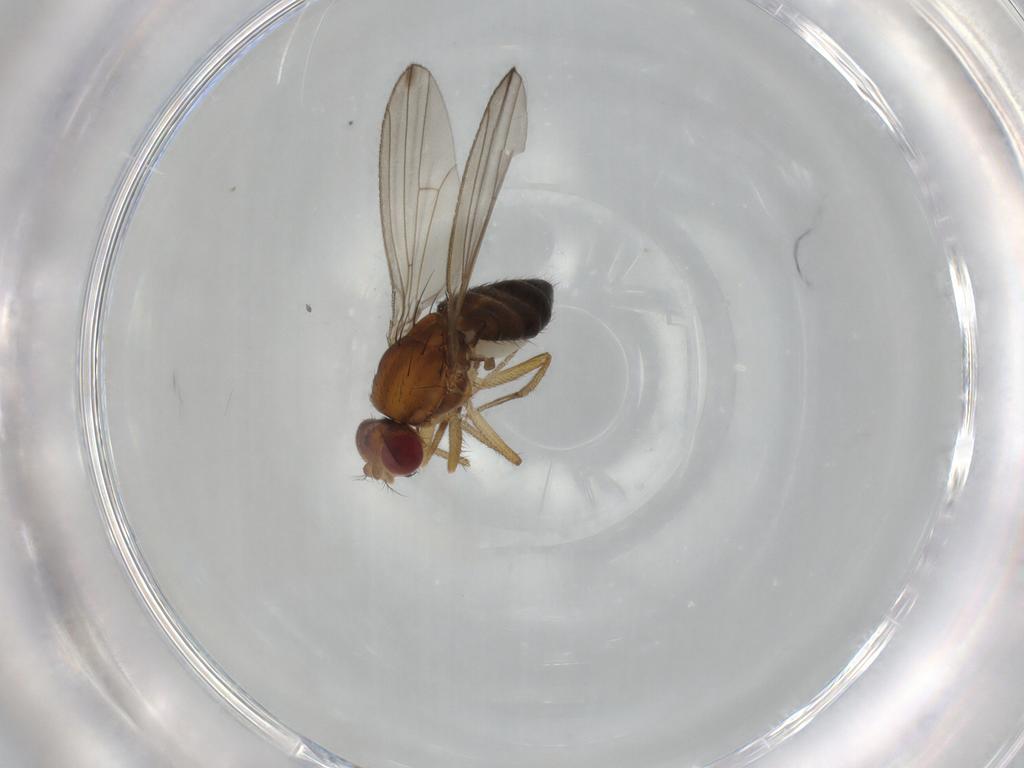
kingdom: Animalia
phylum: Arthropoda
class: Insecta
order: Diptera
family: Drosophilidae
